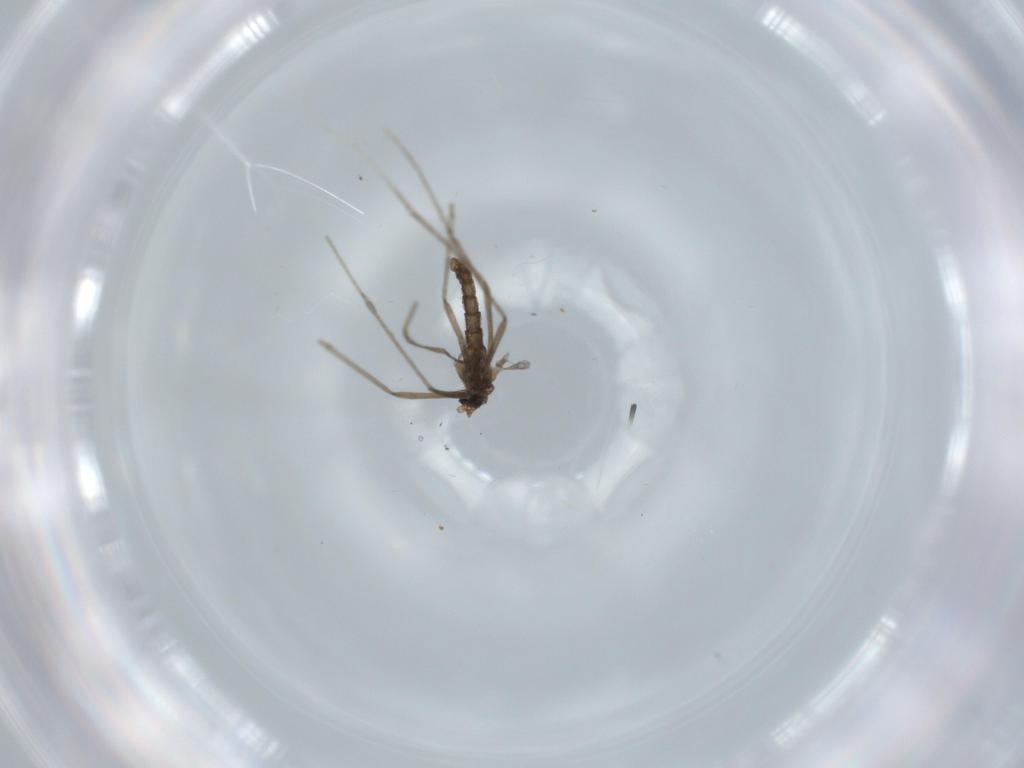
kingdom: Animalia
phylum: Arthropoda
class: Insecta
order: Diptera
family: Cecidomyiidae
